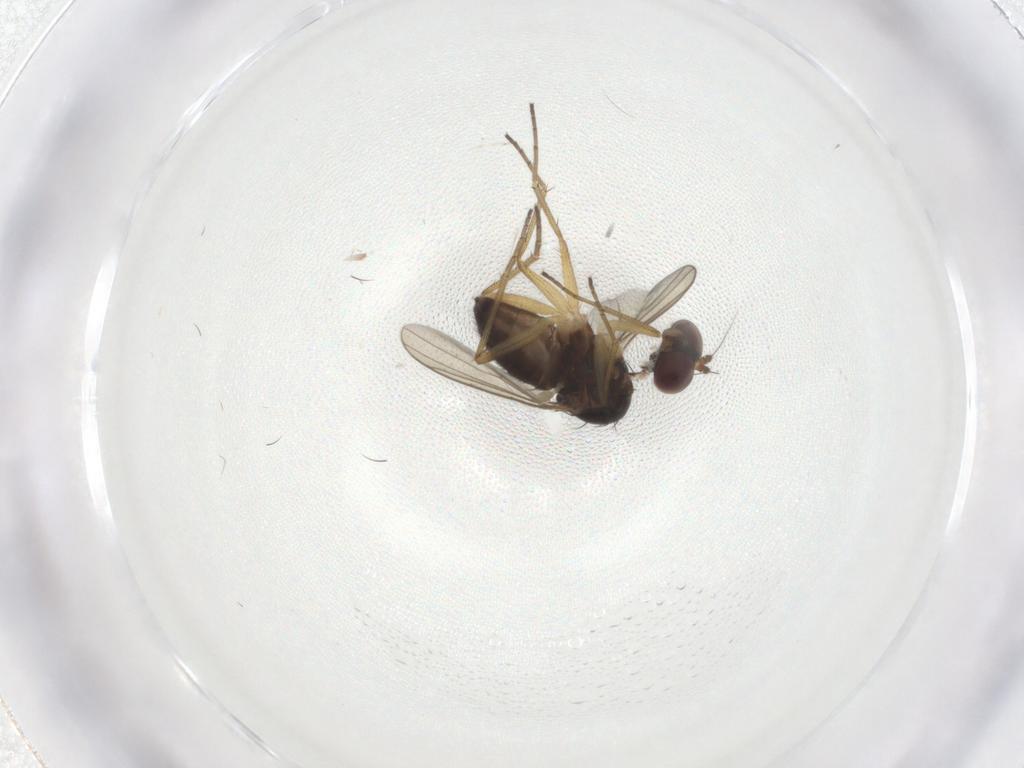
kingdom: Animalia
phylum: Arthropoda
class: Insecta
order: Diptera
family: Dolichopodidae
